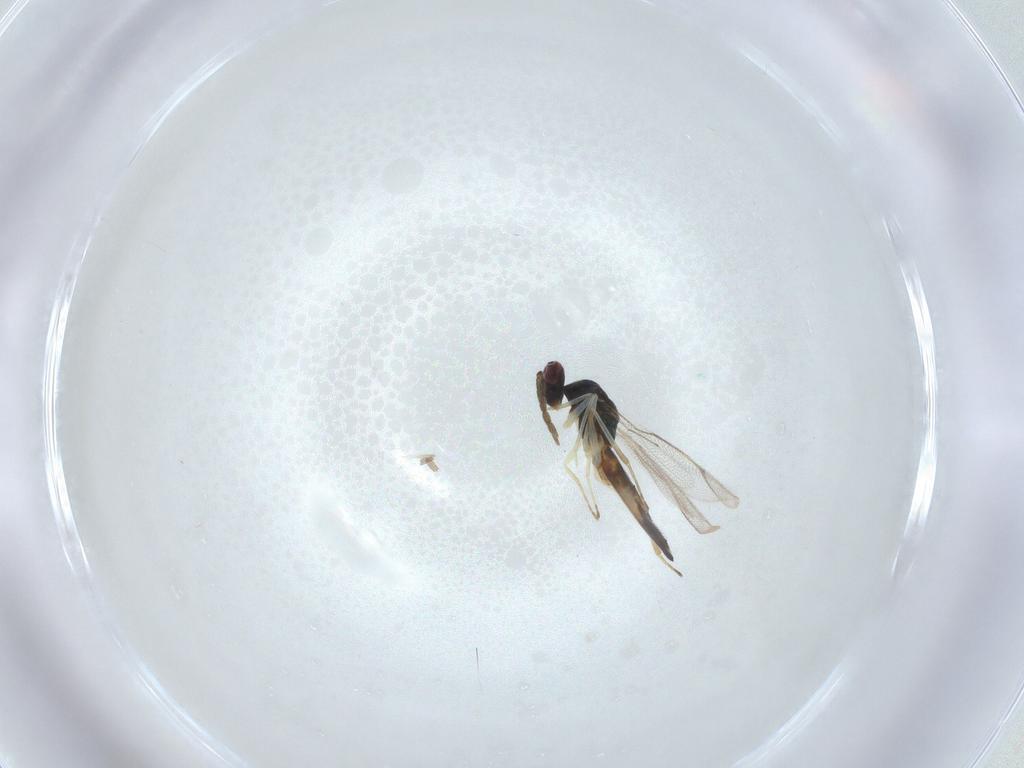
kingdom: Animalia
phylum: Arthropoda
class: Insecta
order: Hymenoptera
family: Eulophidae
